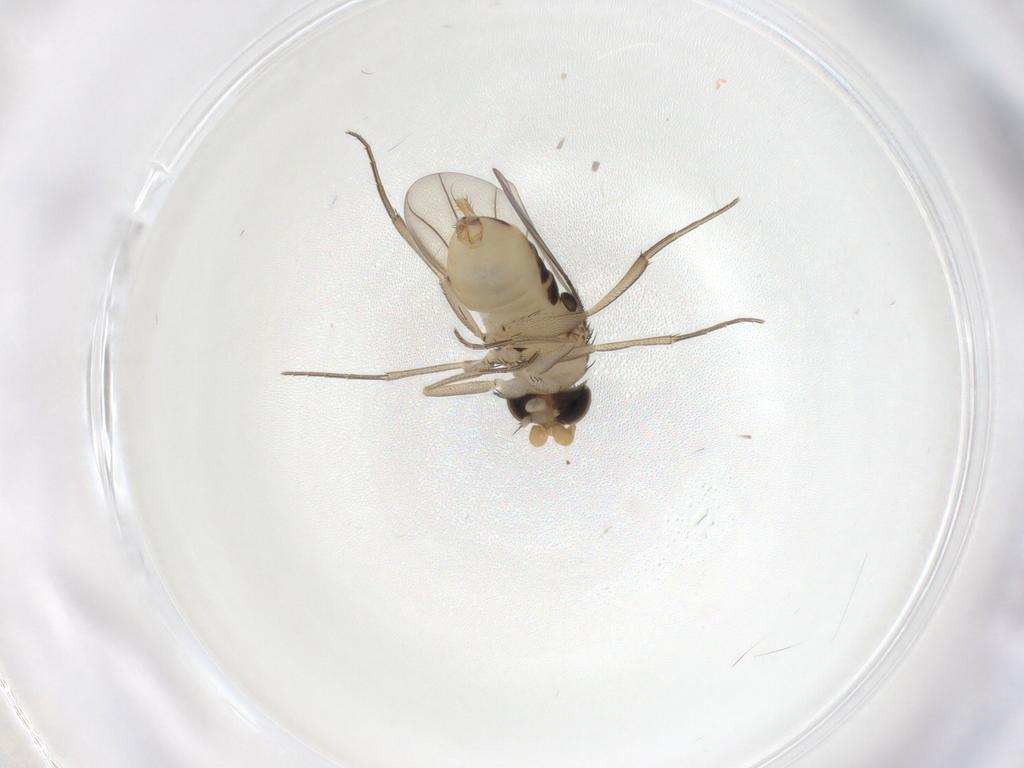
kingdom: Animalia
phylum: Arthropoda
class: Insecta
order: Diptera
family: Phoridae
